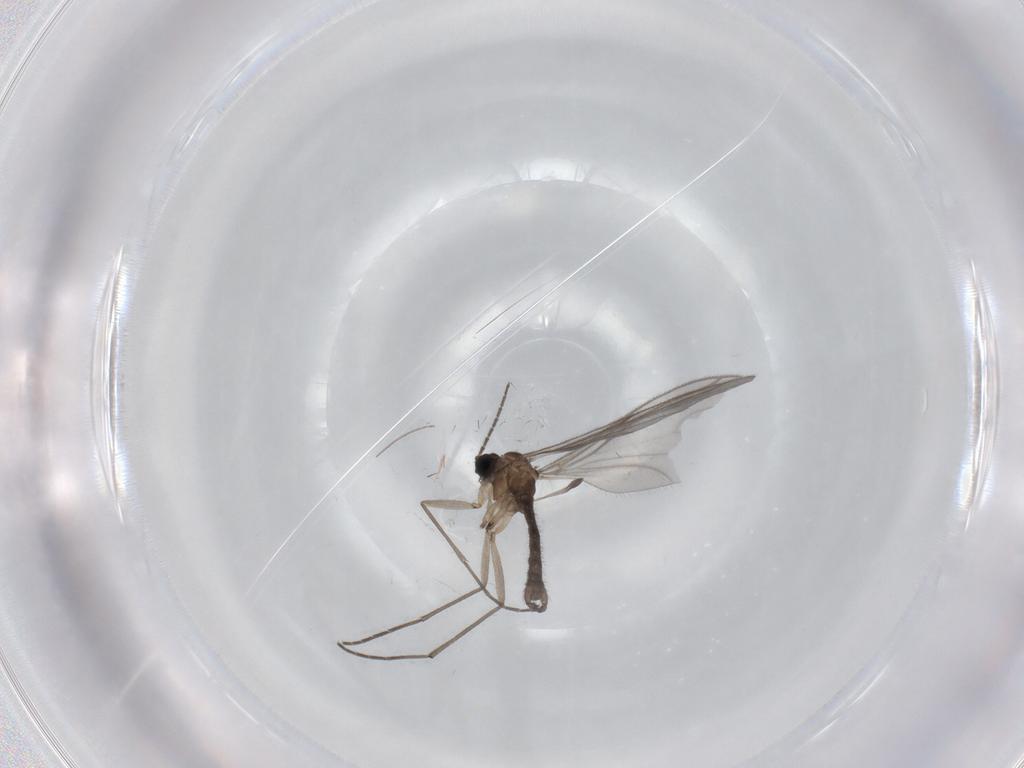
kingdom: Animalia
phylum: Arthropoda
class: Insecta
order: Diptera
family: Sciaridae
